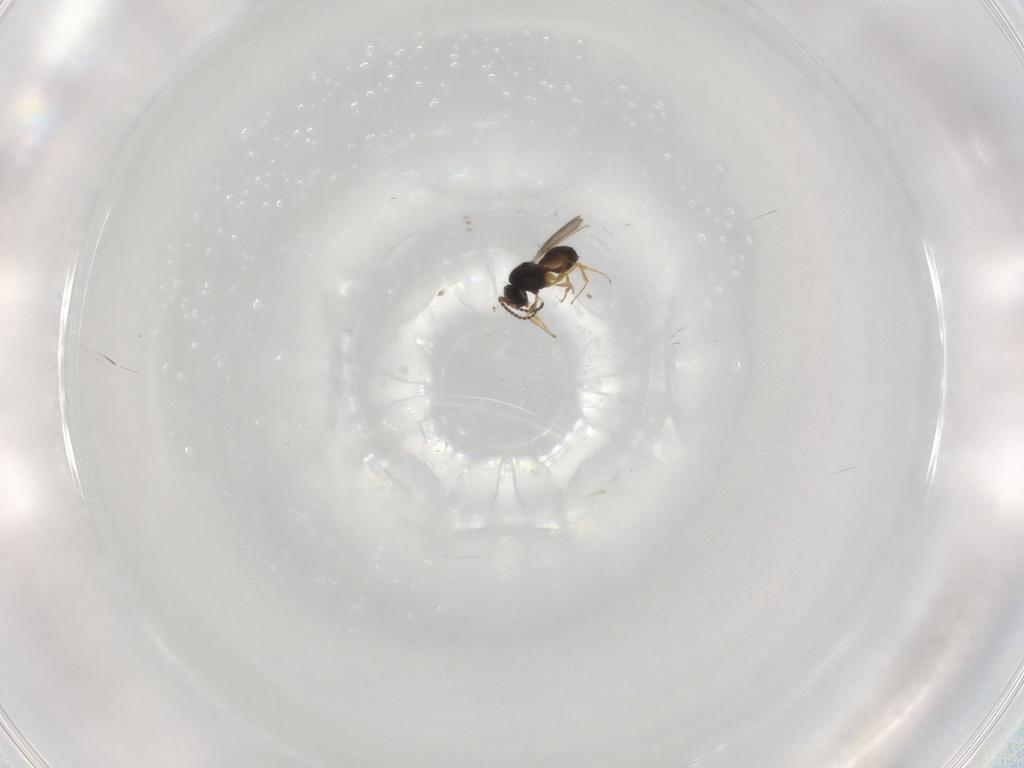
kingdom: Animalia
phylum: Arthropoda
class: Insecta
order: Hymenoptera
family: Scelionidae
